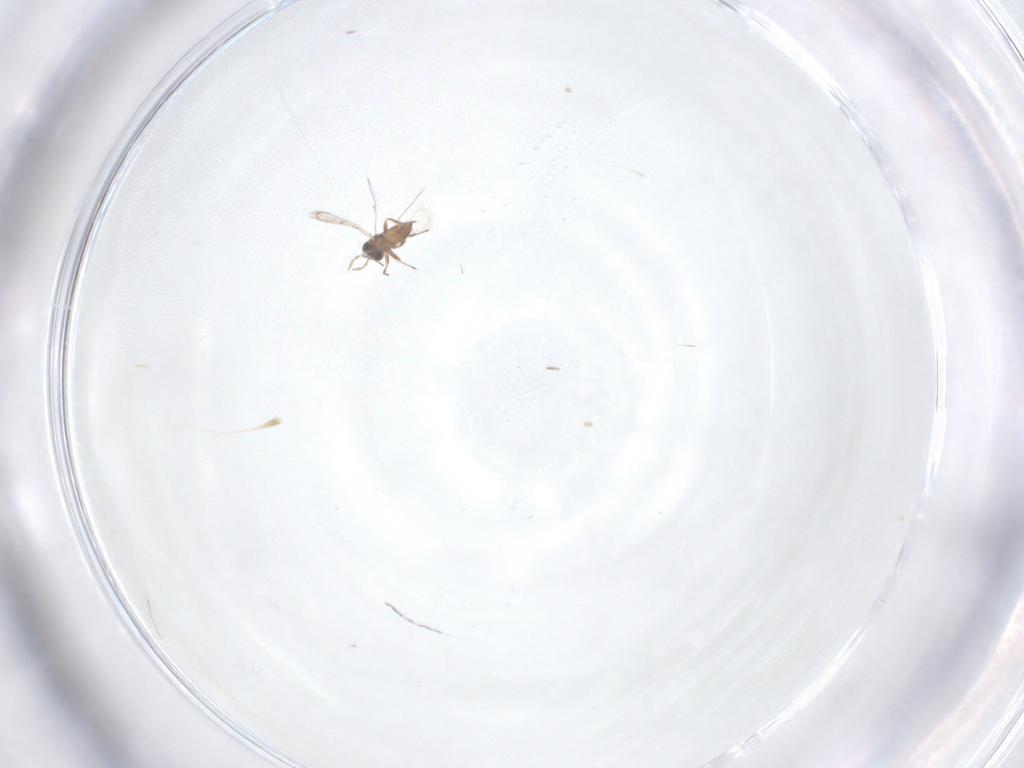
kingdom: Animalia
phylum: Arthropoda
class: Insecta
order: Hymenoptera
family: Trichogrammatidae
